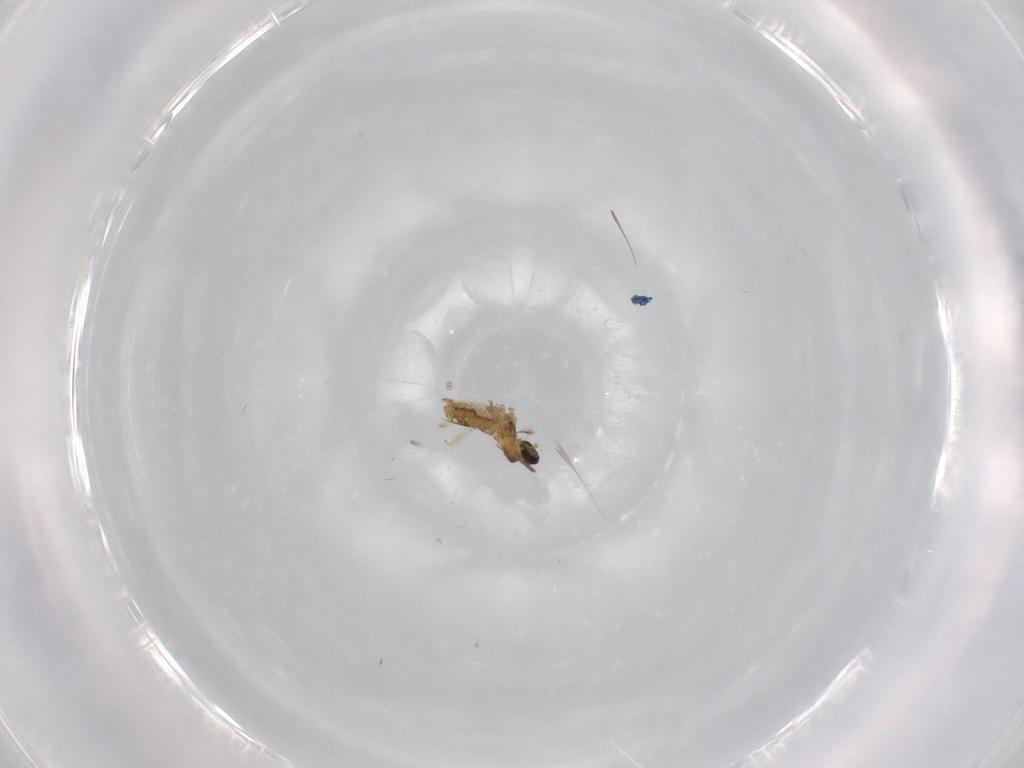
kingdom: Animalia
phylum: Arthropoda
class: Insecta
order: Diptera
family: Cecidomyiidae
